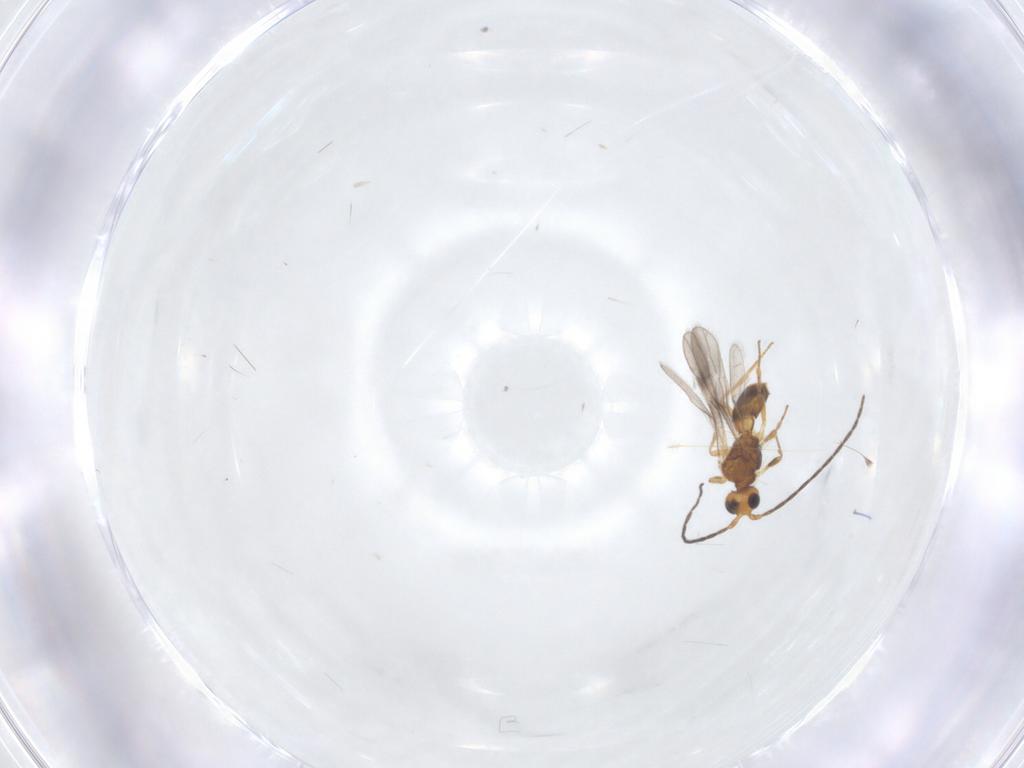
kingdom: Animalia
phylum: Arthropoda
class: Insecta
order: Hymenoptera
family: Braconidae
